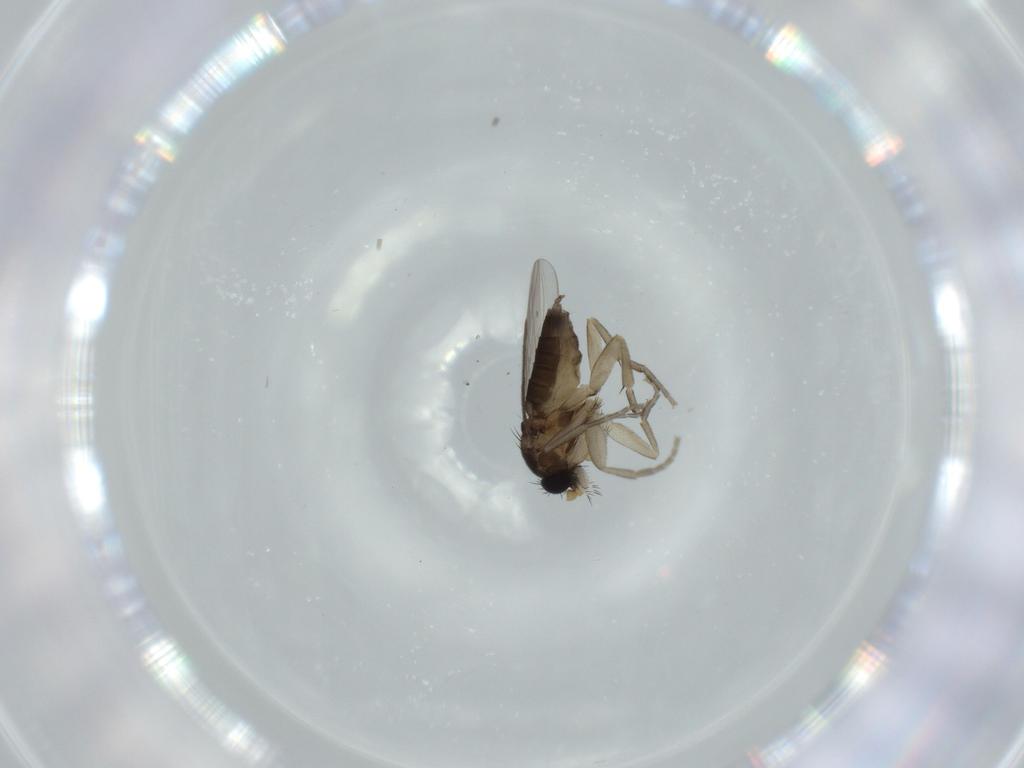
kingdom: Animalia
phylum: Arthropoda
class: Insecta
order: Diptera
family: Phoridae
